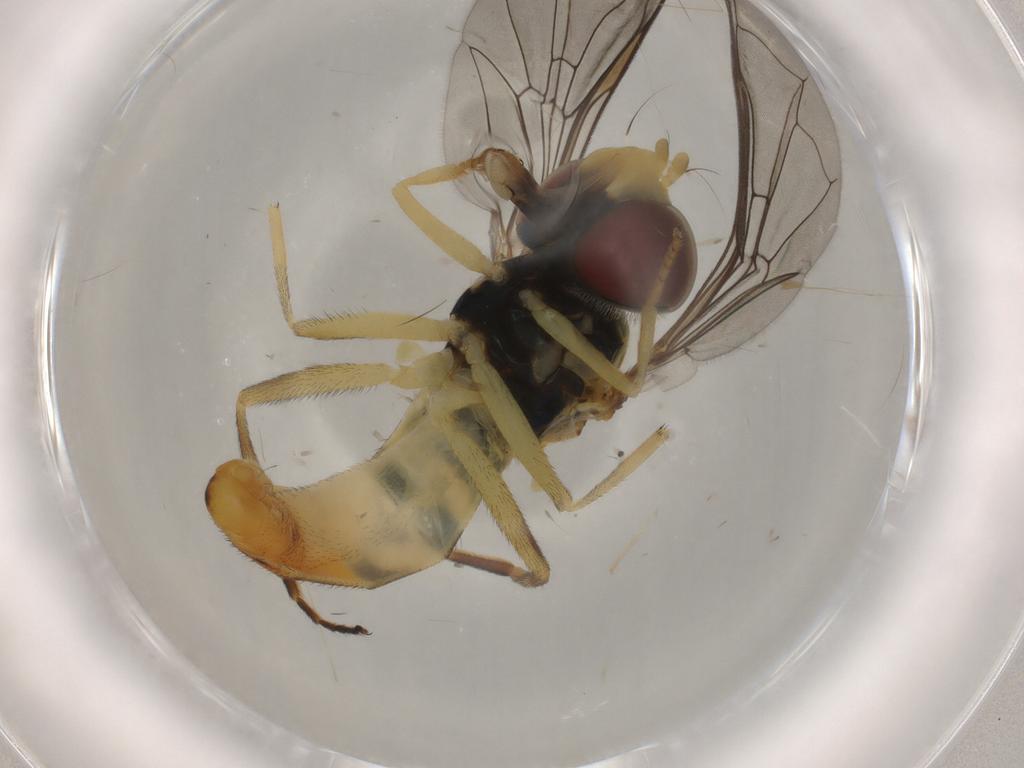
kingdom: Animalia
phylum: Arthropoda
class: Insecta
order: Diptera
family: Syrphidae
